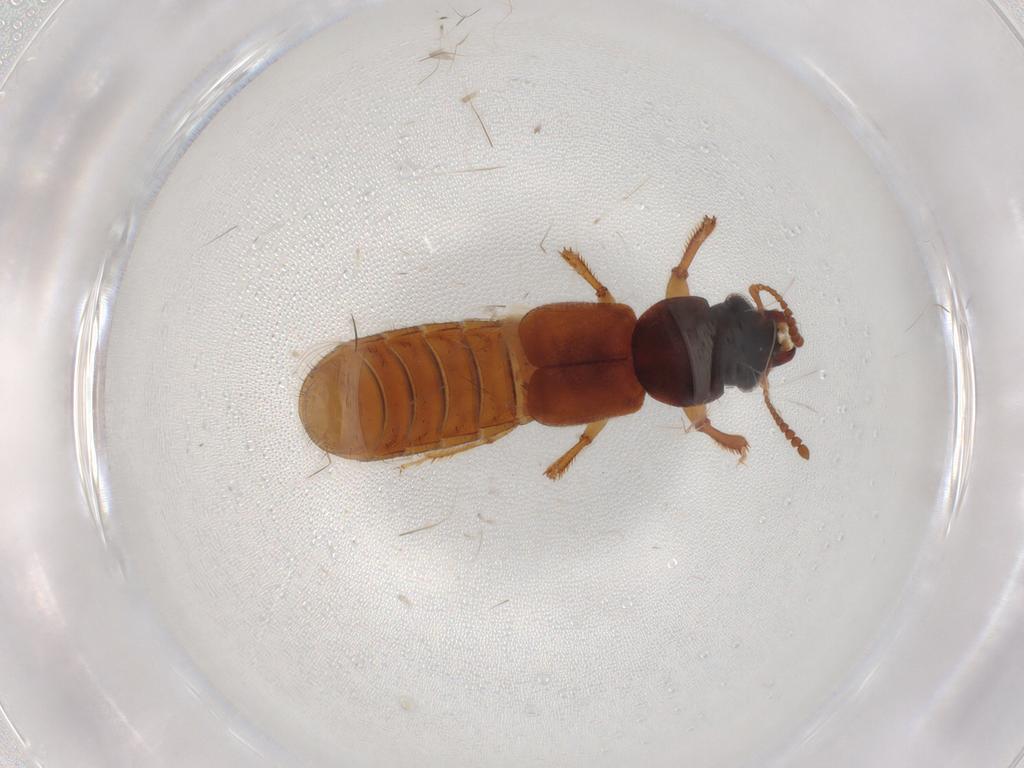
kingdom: Animalia
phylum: Arthropoda
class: Insecta
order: Coleoptera
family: Staphylinidae
